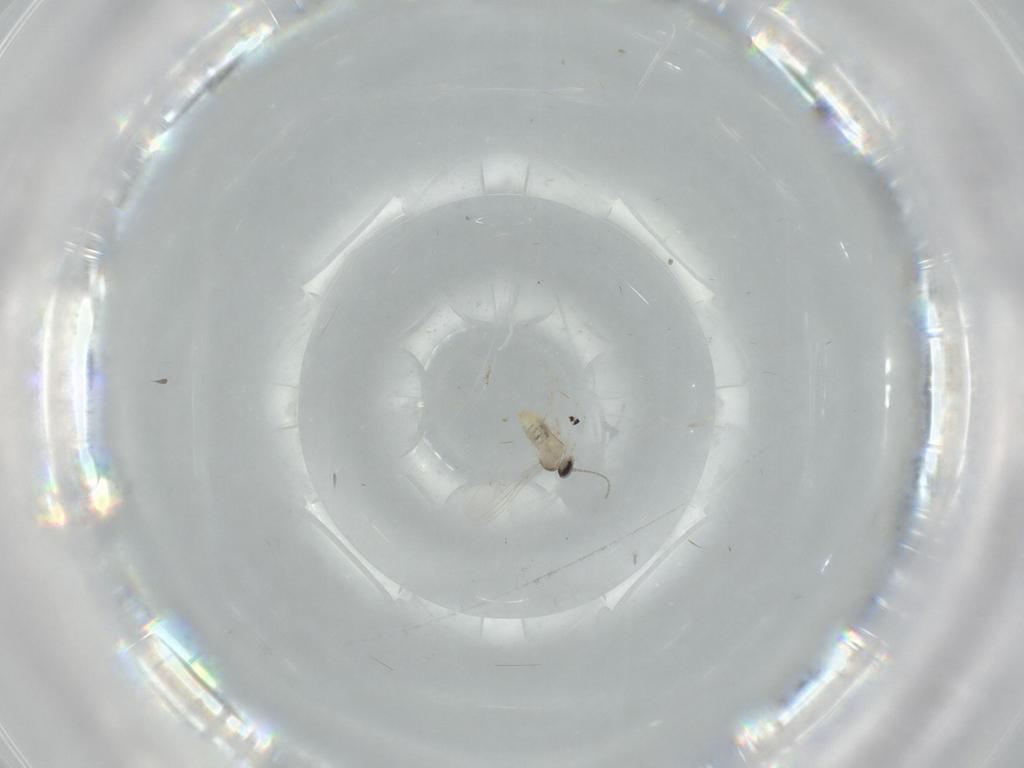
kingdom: Animalia
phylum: Arthropoda
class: Insecta
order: Diptera
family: Cecidomyiidae
